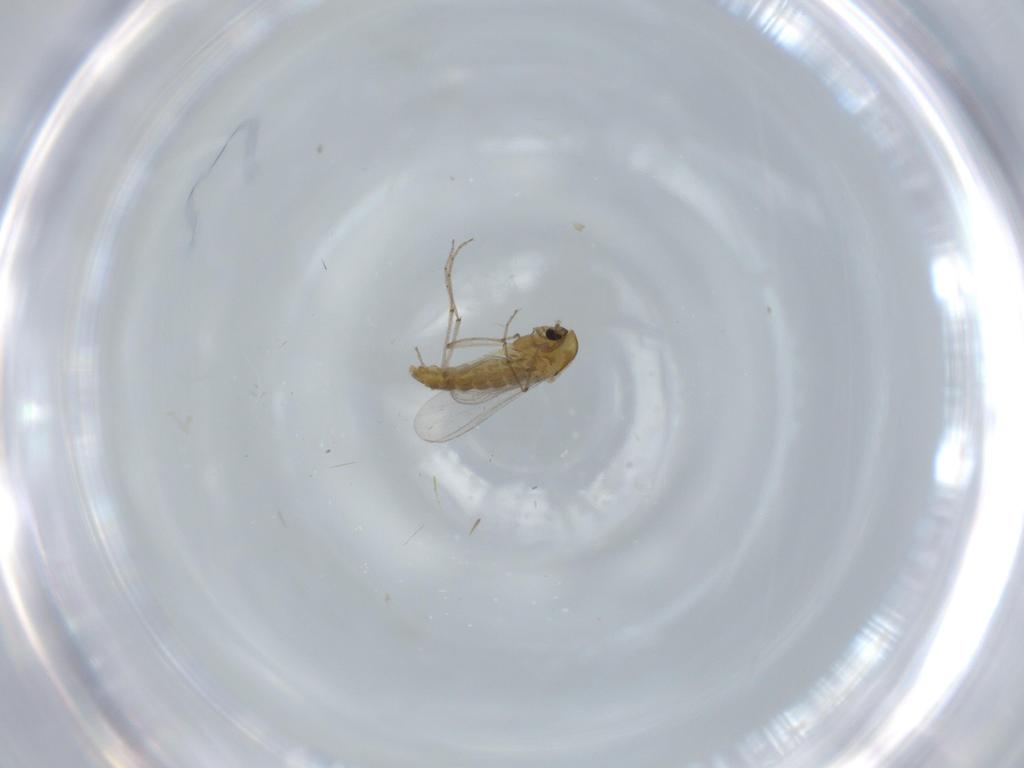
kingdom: Animalia
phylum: Arthropoda
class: Insecta
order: Diptera
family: Chironomidae
